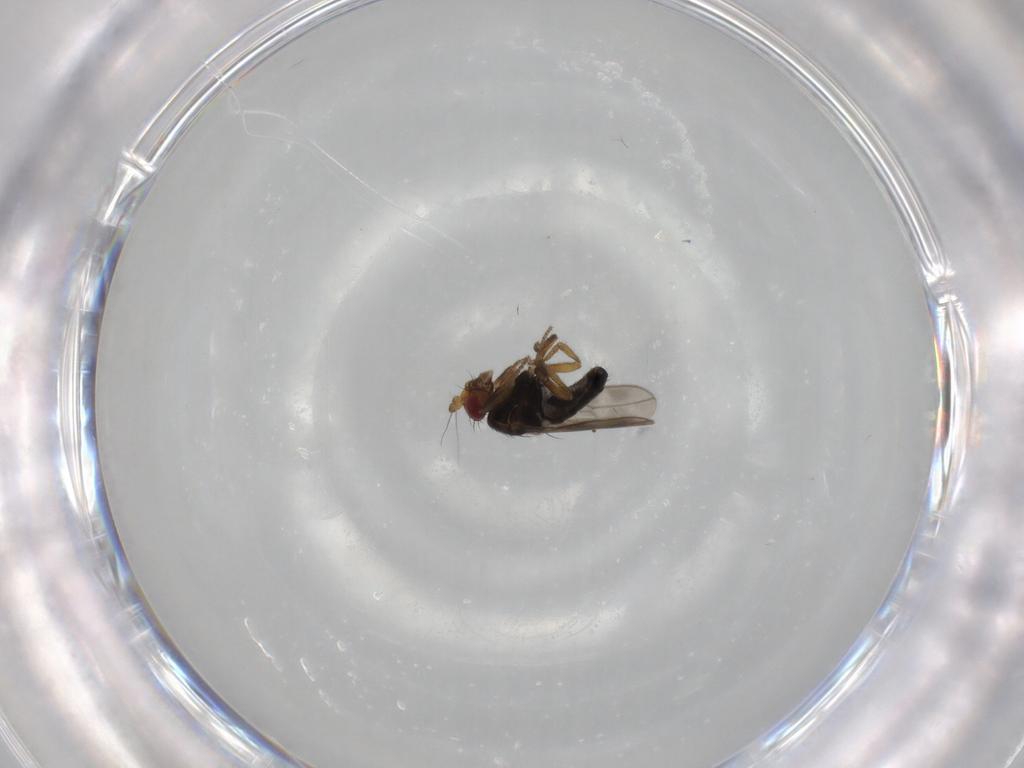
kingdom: Animalia
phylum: Arthropoda
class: Insecta
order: Diptera
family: Sphaeroceridae
